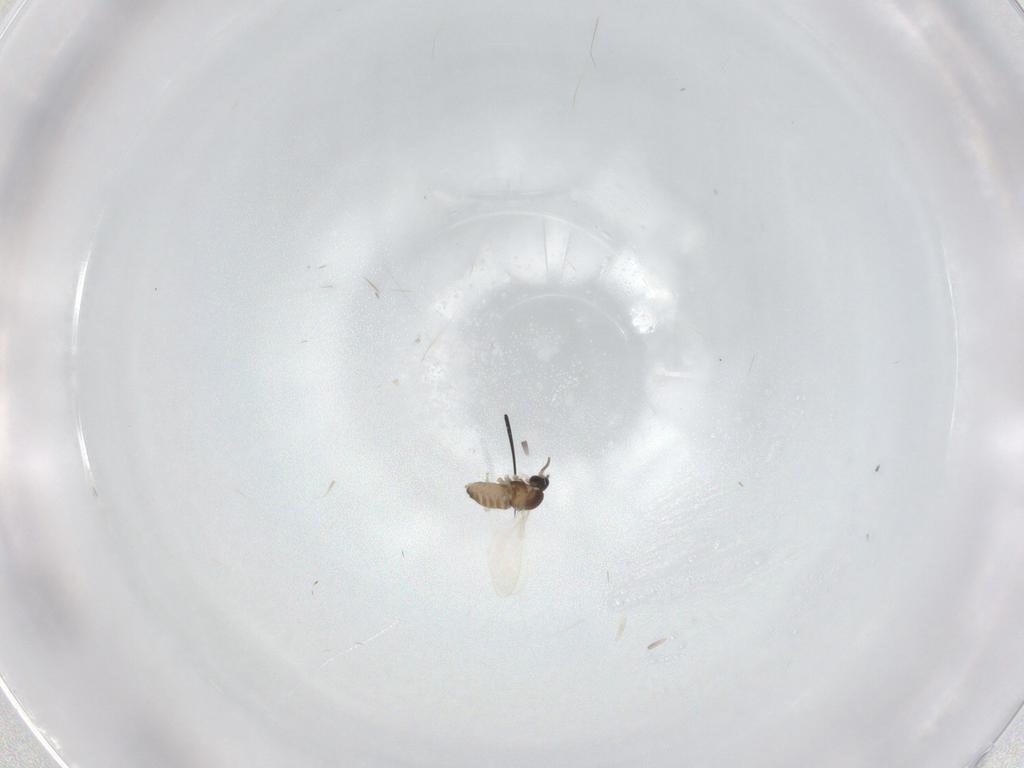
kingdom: Animalia
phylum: Arthropoda
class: Insecta
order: Diptera
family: Cecidomyiidae
